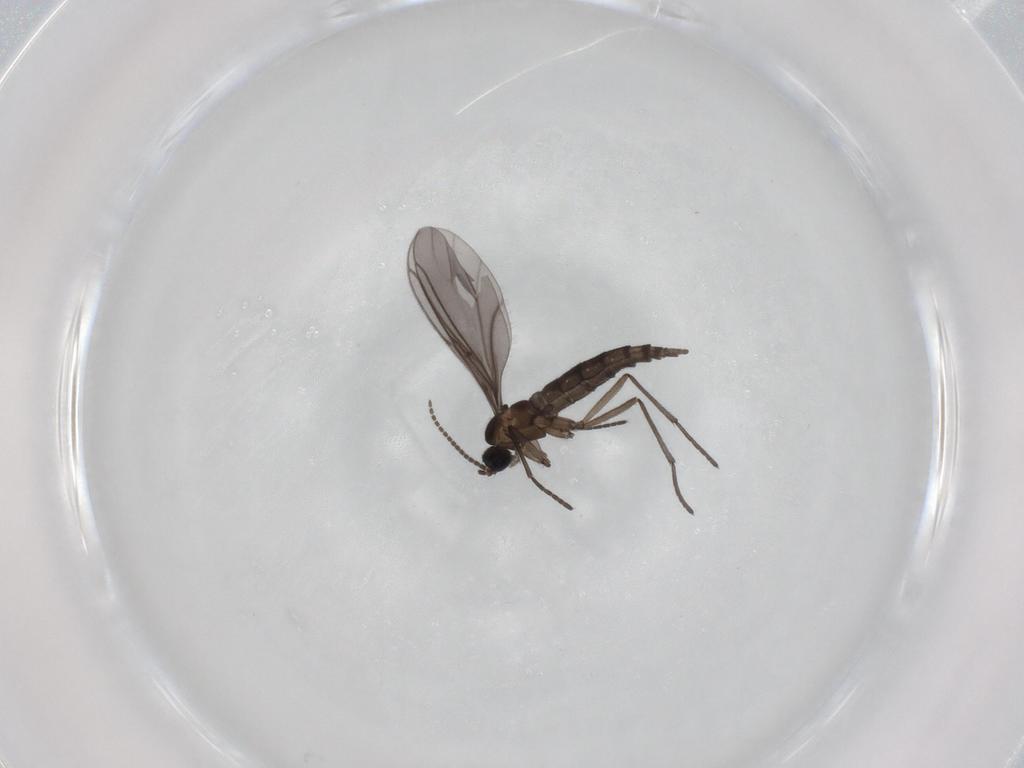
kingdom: Animalia
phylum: Arthropoda
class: Insecta
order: Diptera
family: Sciaridae
